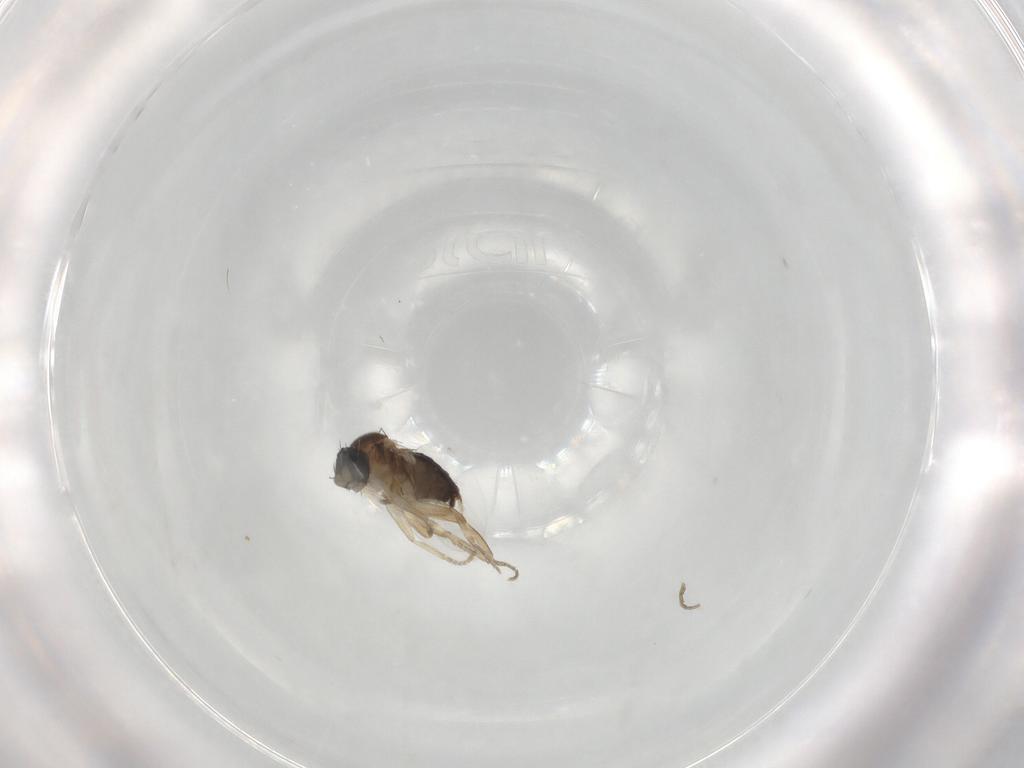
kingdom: Animalia
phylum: Arthropoda
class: Insecta
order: Diptera
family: Phoridae
